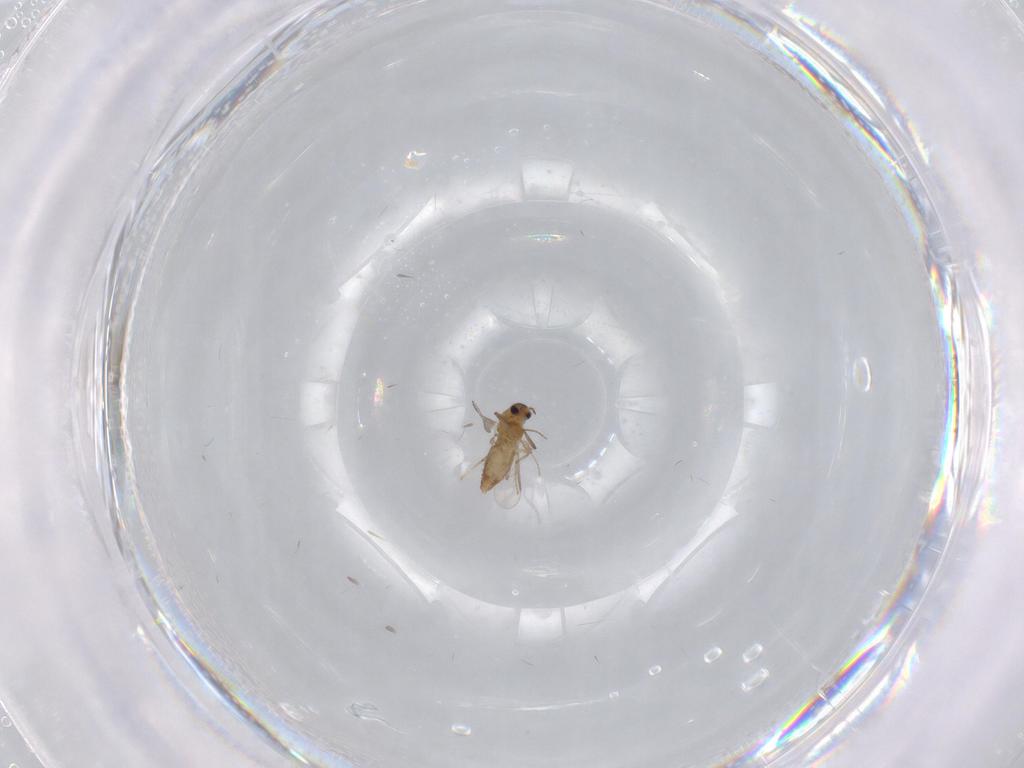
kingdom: Animalia
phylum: Arthropoda
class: Insecta
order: Diptera
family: Chironomidae
